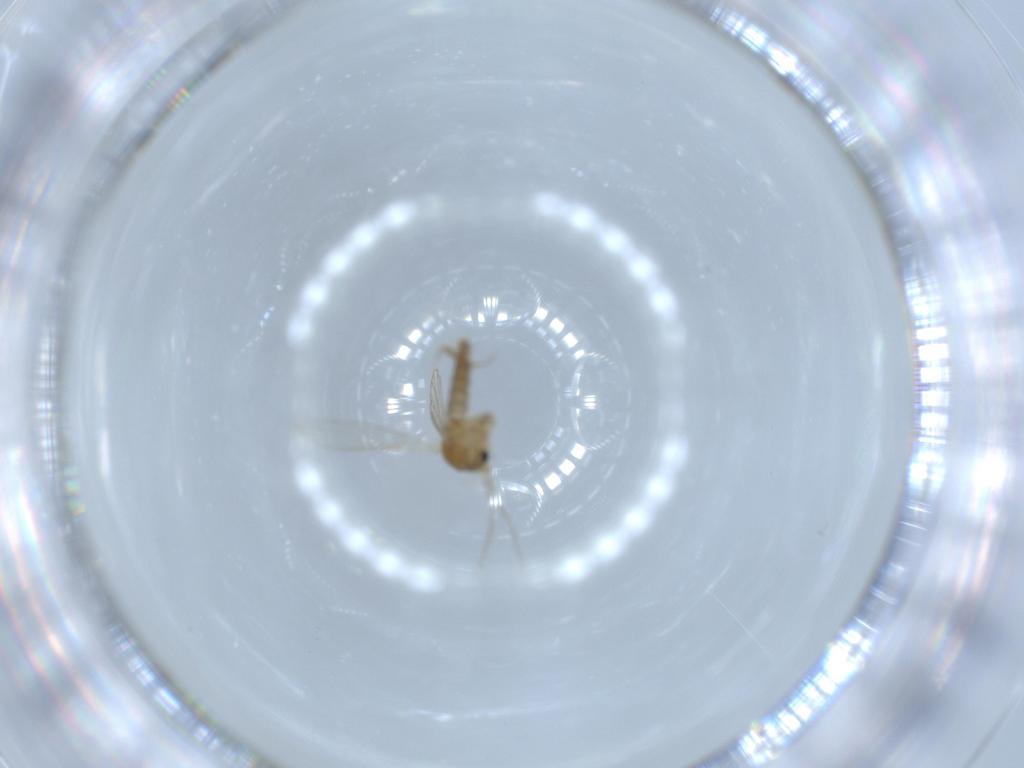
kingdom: Animalia
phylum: Arthropoda
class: Insecta
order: Diptera
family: Psychodidae
